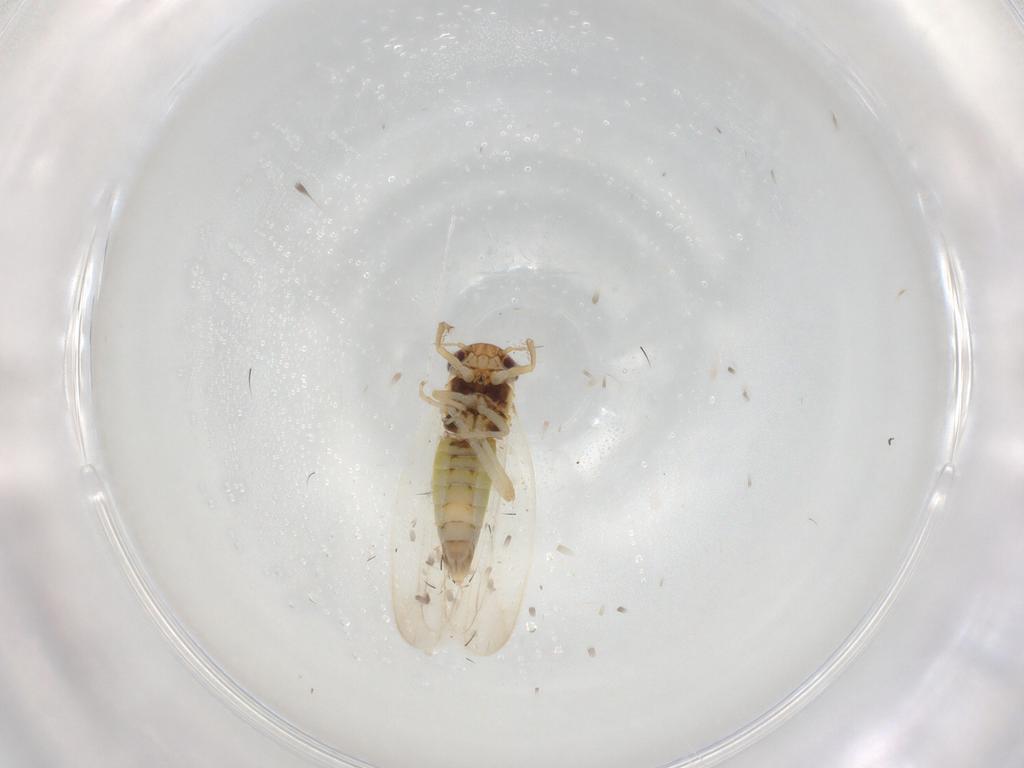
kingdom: Animalia
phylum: Arthropoda
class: Insecta
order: Hemiptera
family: Cicadellidae
